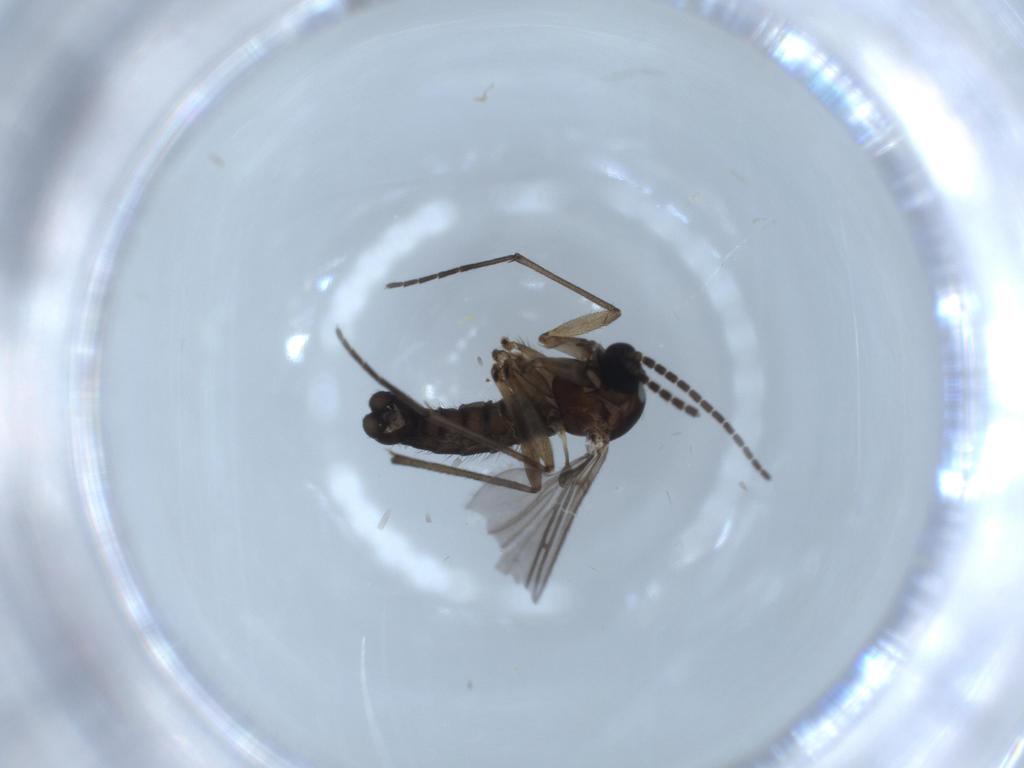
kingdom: Animalia
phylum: Arthropoda
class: Insecta
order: Diptera
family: Sciaridae
